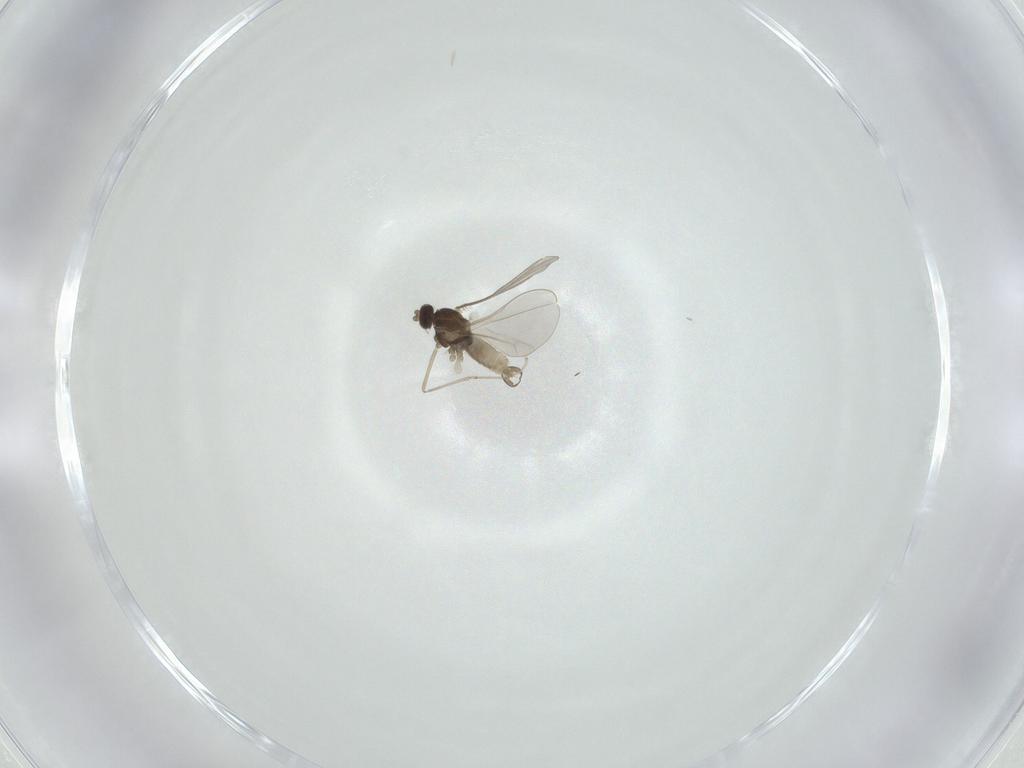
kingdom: Animalia
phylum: Arthropoda
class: Insecta
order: Diptera
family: Cecidomyiidae
